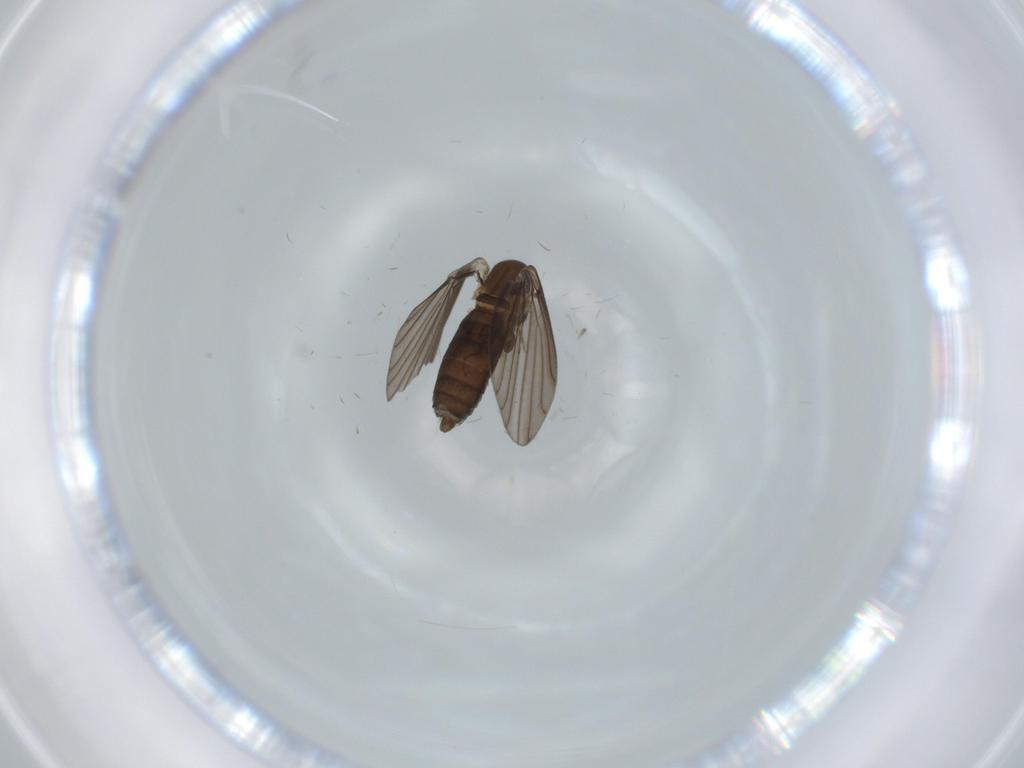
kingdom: Animalia
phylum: Arthropoda
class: Insecta
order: Diptera
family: Psychodidae
